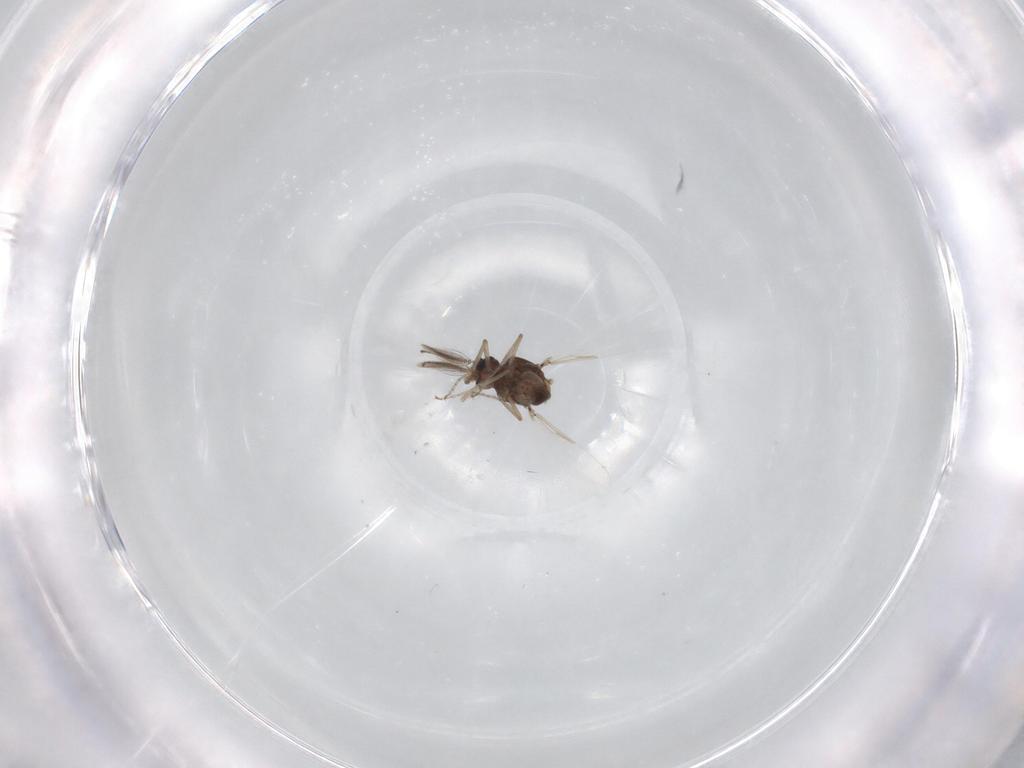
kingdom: Animalia
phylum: Arthropoda
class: Insecta
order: Diptera
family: Ceratopogonidae
